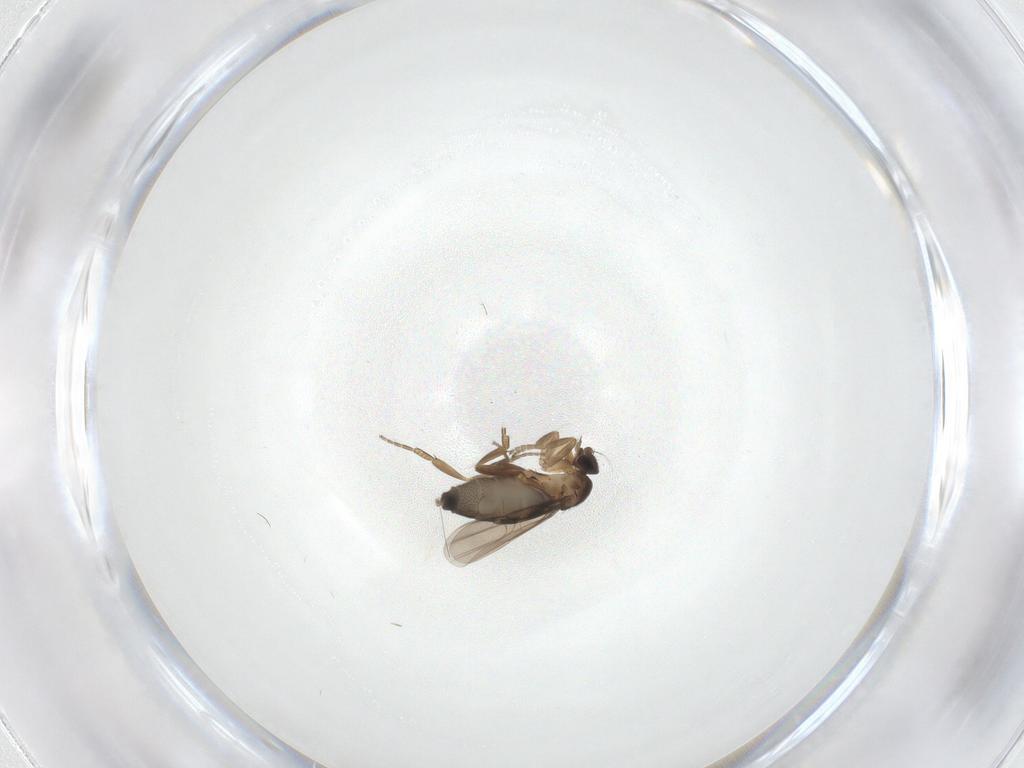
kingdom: Animalia
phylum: Arthropoda
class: Insecta
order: Diptera
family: Phoridae
